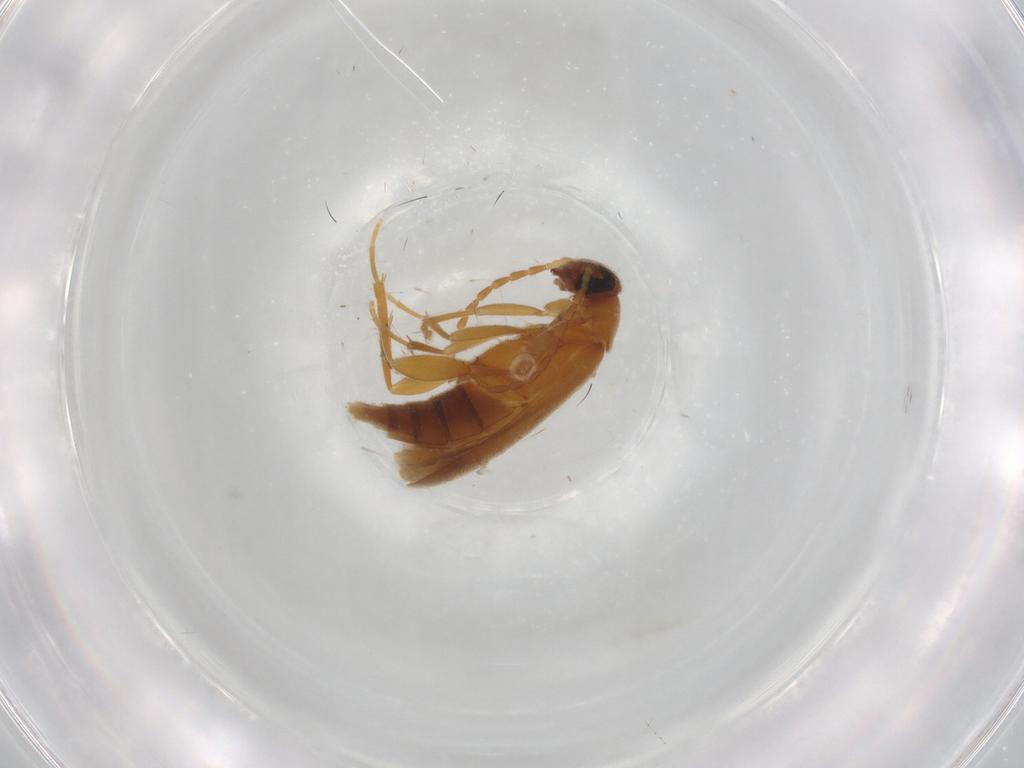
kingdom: Animalia
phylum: Arthropoda
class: Insecta
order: Coleoptera
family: Scraptiidae
